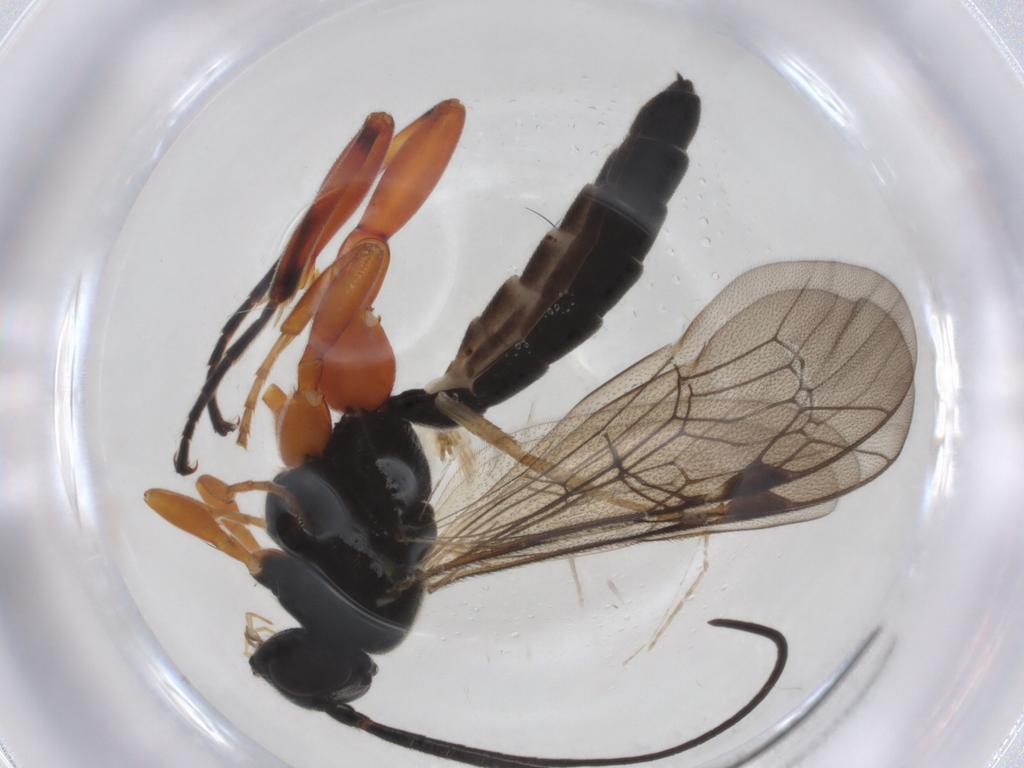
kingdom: Animalia
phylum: Arthropoda
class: Insecta
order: Hymenoptera
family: Ichneumonidae
